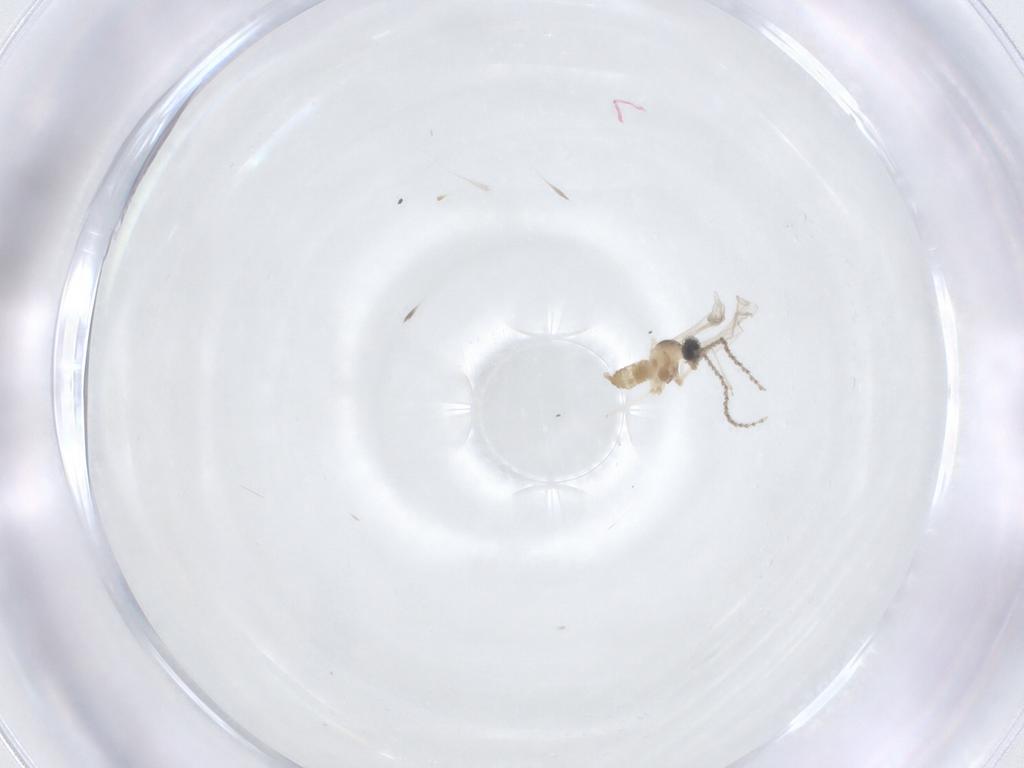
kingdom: Animalia
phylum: Arthropoda
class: Insecta
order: Diptera
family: Cecidomyiidae
